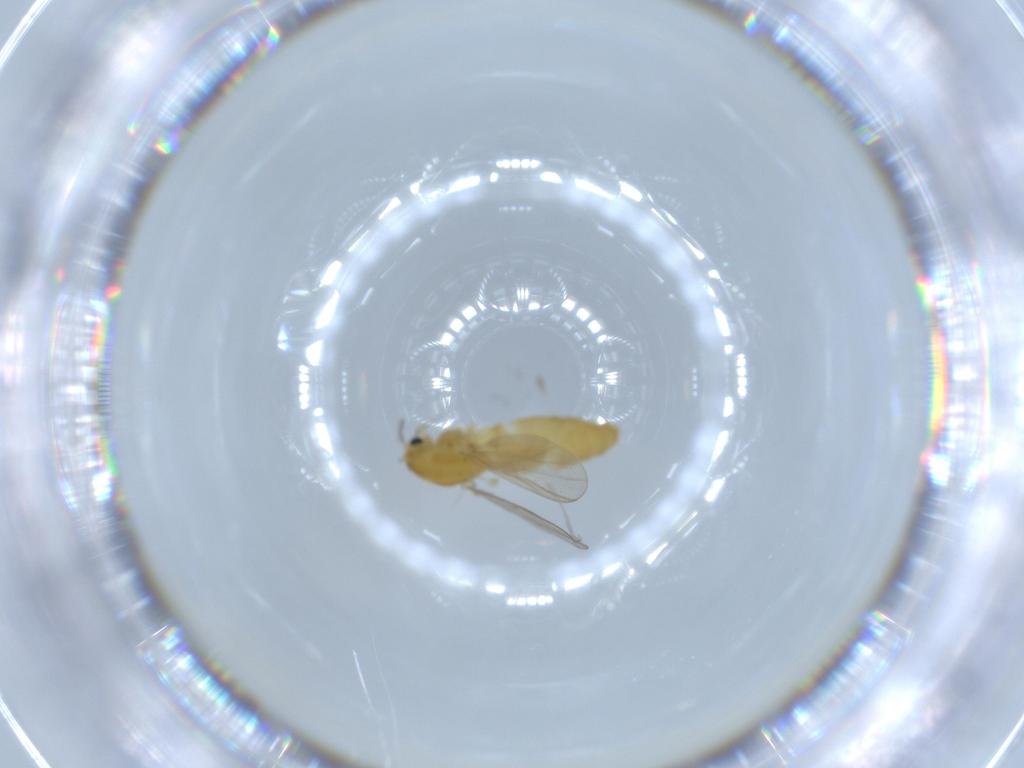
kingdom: Animalia
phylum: Arthropoda
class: Insecta
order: Diptera
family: Chironomidae
